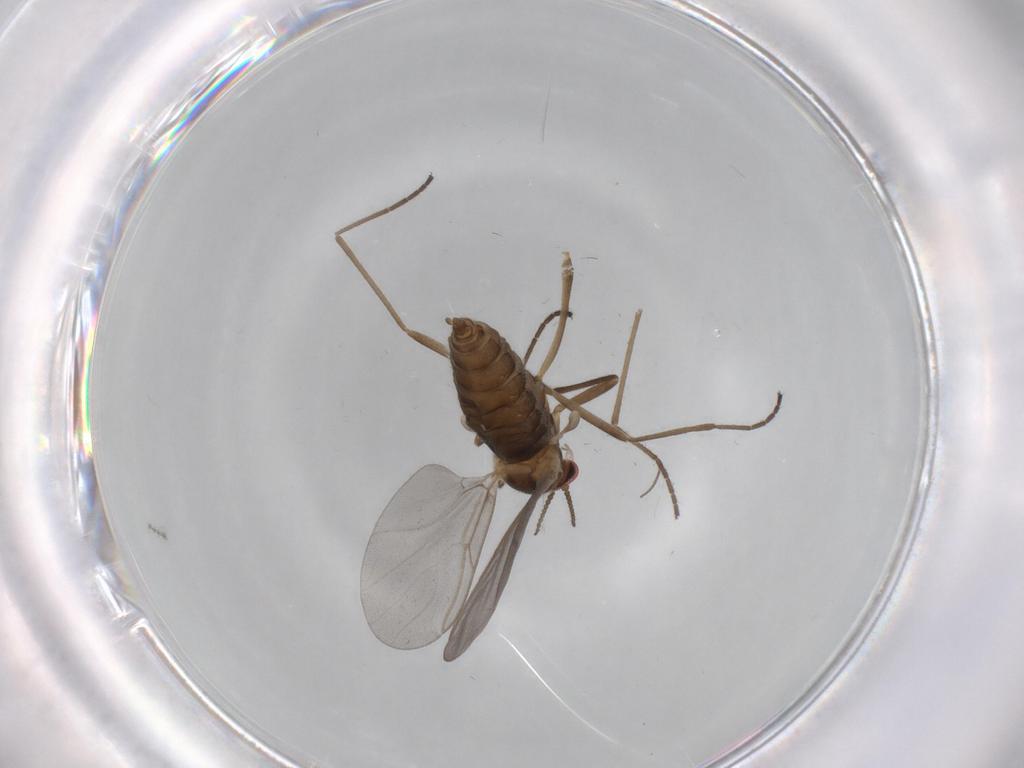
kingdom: Animalia
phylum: Arthropoda
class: Insecta
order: Diptera
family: Cecidomyiidae
